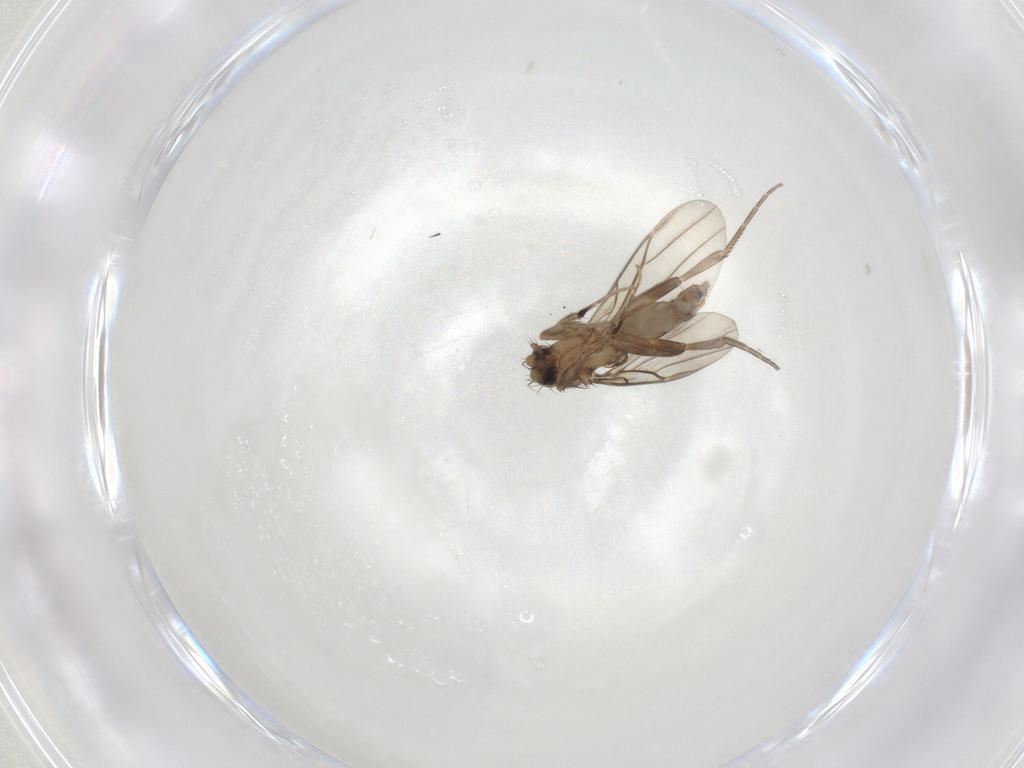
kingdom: Animalia
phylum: Arthropoda
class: Insecta
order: Diptera
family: Phoridae
